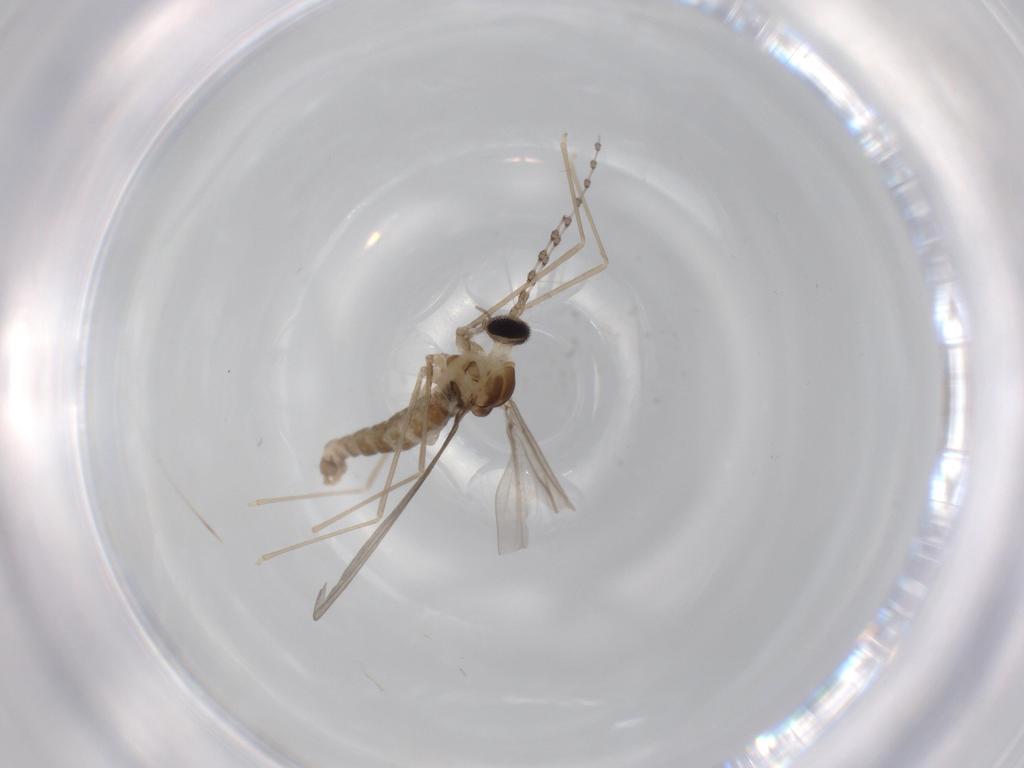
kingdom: Animalia
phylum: Arthropoda
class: Insecta
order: Diptera
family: Cecidomyiidae
